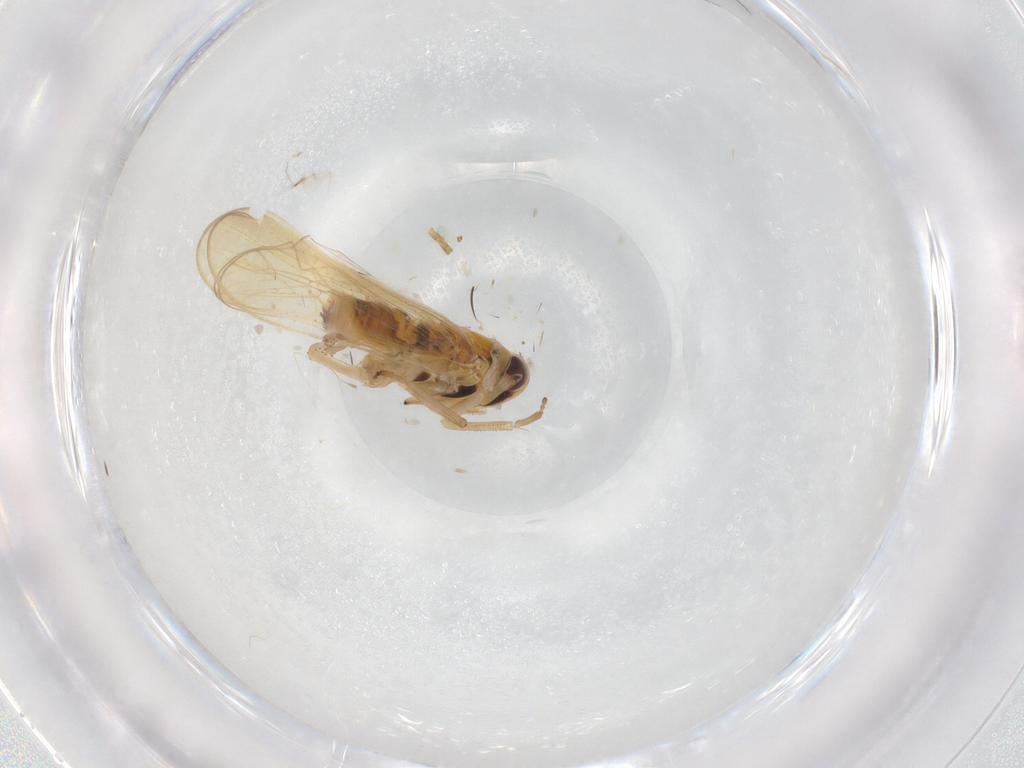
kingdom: Animalia
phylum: Arthropoda
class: Insecta
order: Hemiptera
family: Delphacidae
